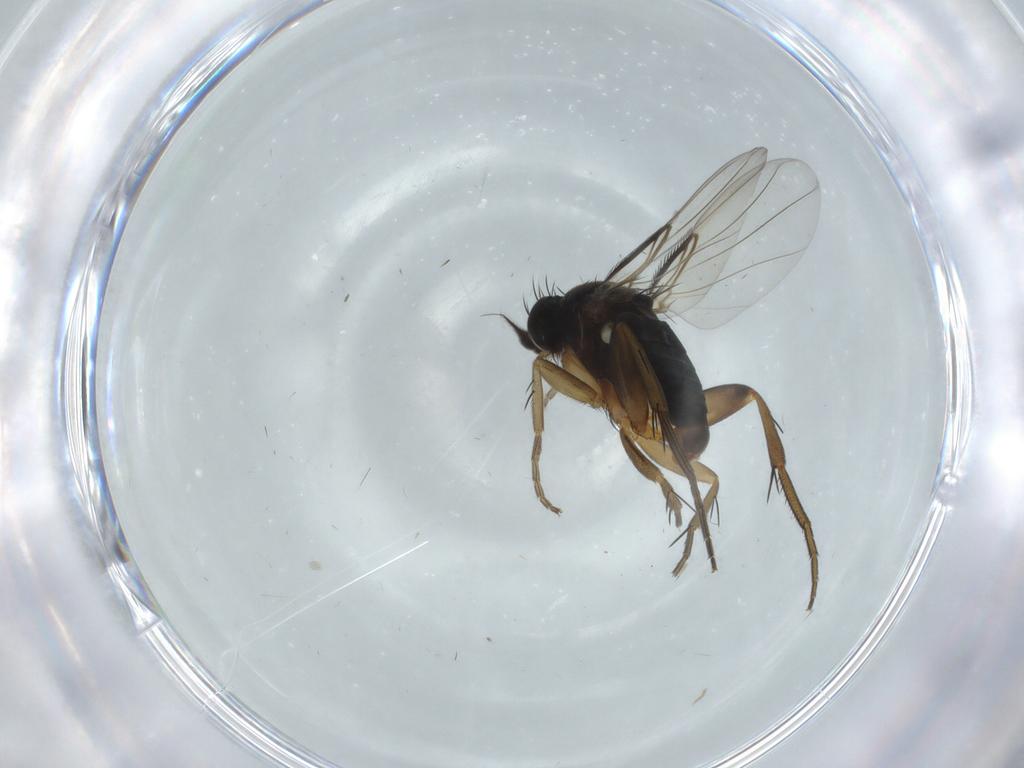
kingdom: Animalia
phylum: Arthropoda
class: Insecta
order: Diptera
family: Phoridae
